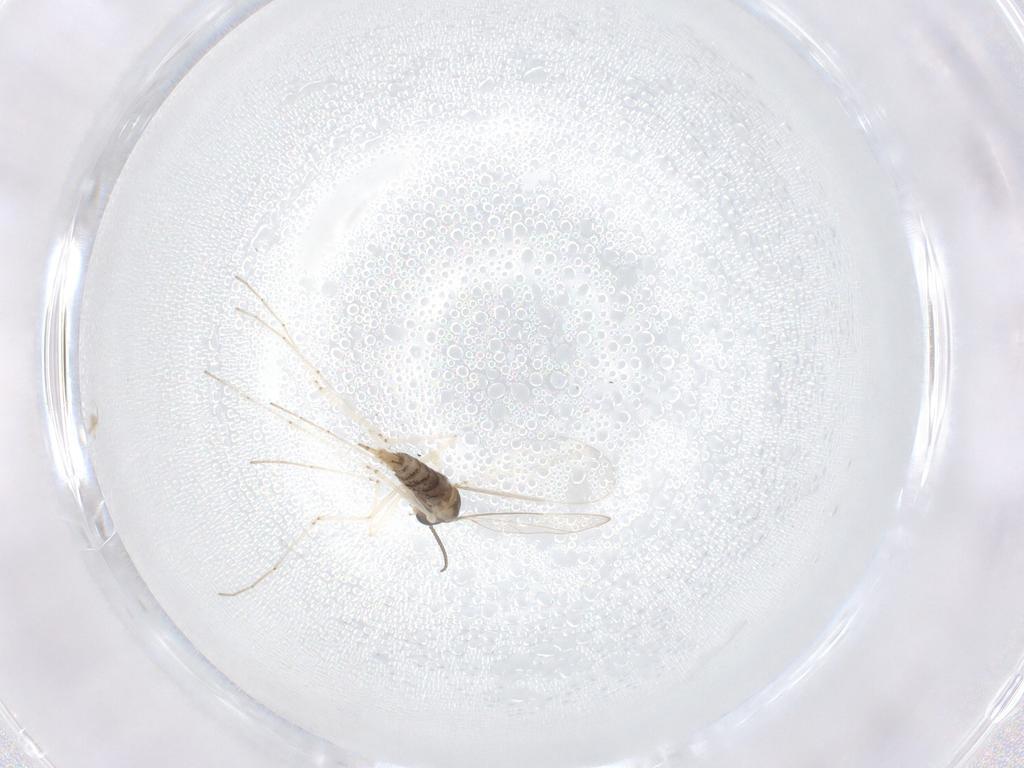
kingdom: Animalia
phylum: Arthropoda
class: Insecta
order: Diptera
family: Cecidomyiidae
